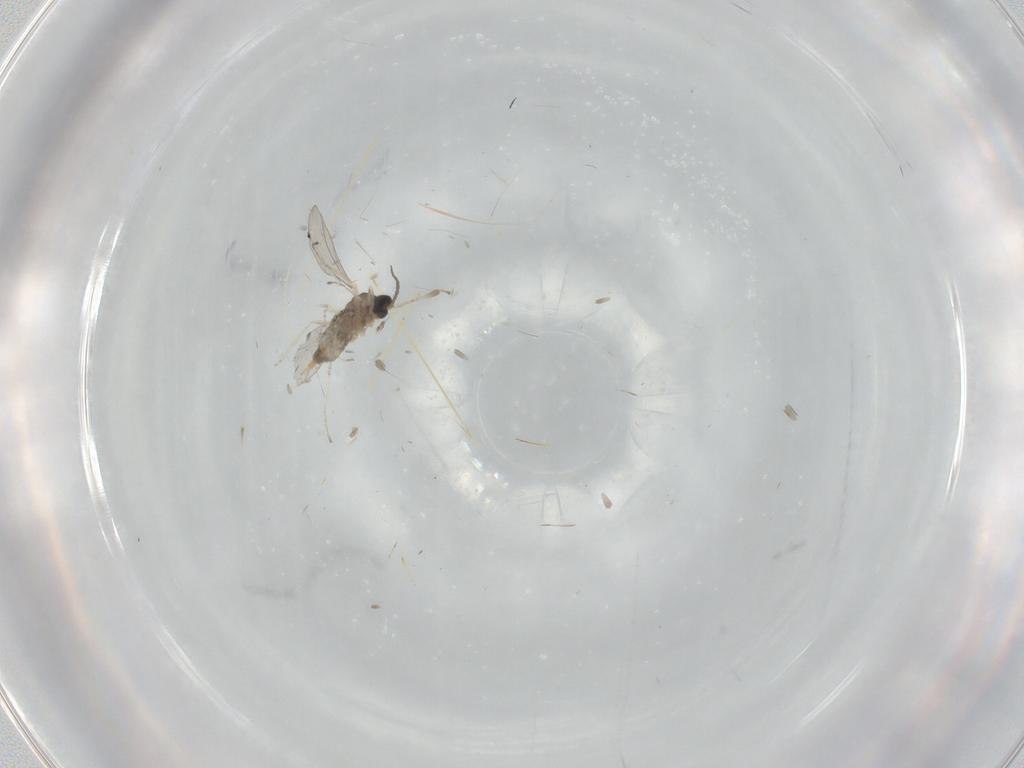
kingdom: Animalia
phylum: Arthropoda
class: Insecta
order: Diptera
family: Cecidomyiidae
